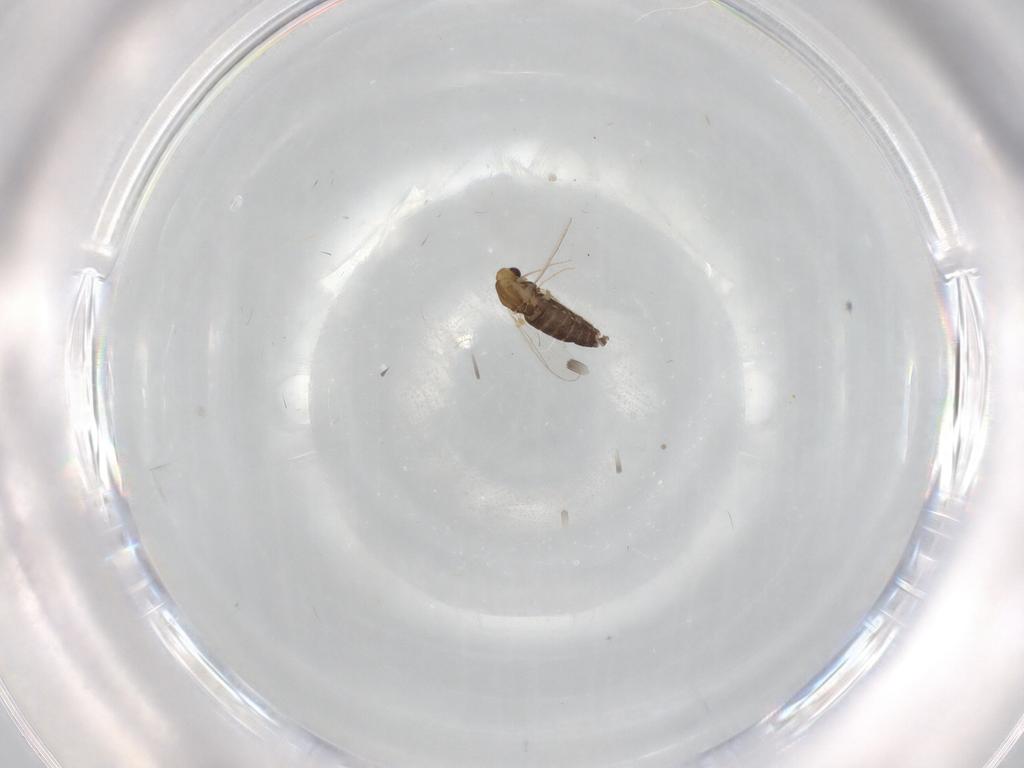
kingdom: Animalia
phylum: Arthropoda
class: Insecta
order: Diptera
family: Chironomidae
